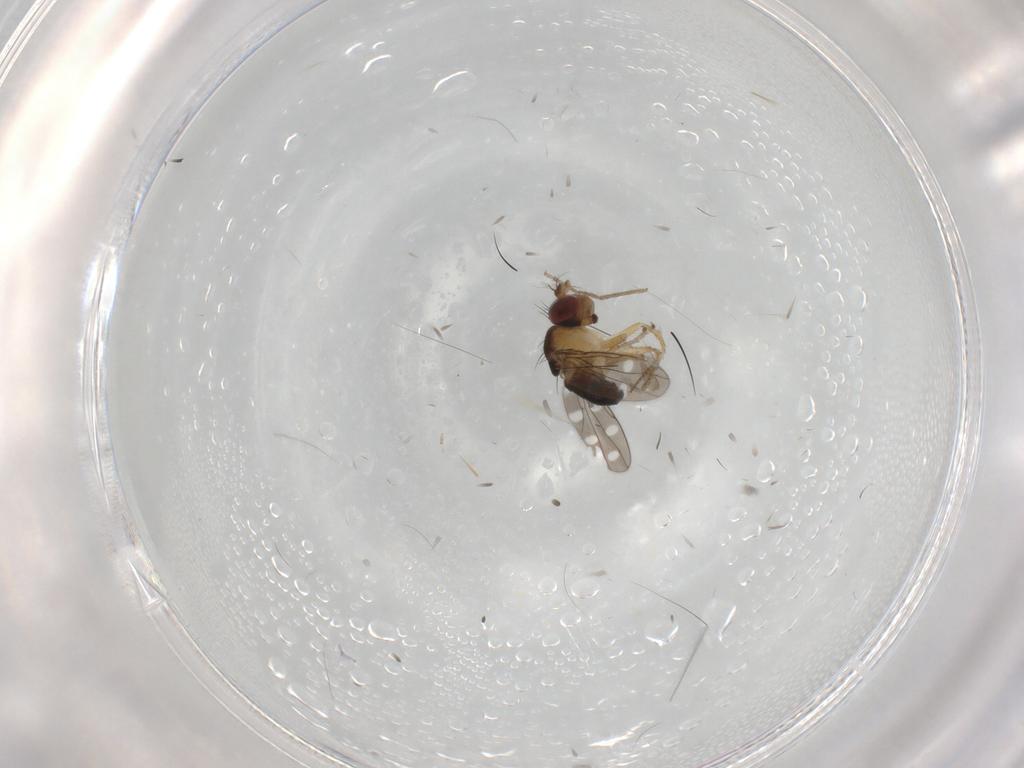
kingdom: Animalia
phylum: Arthropoda
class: Insecta
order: Diptera
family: Ephydridae
